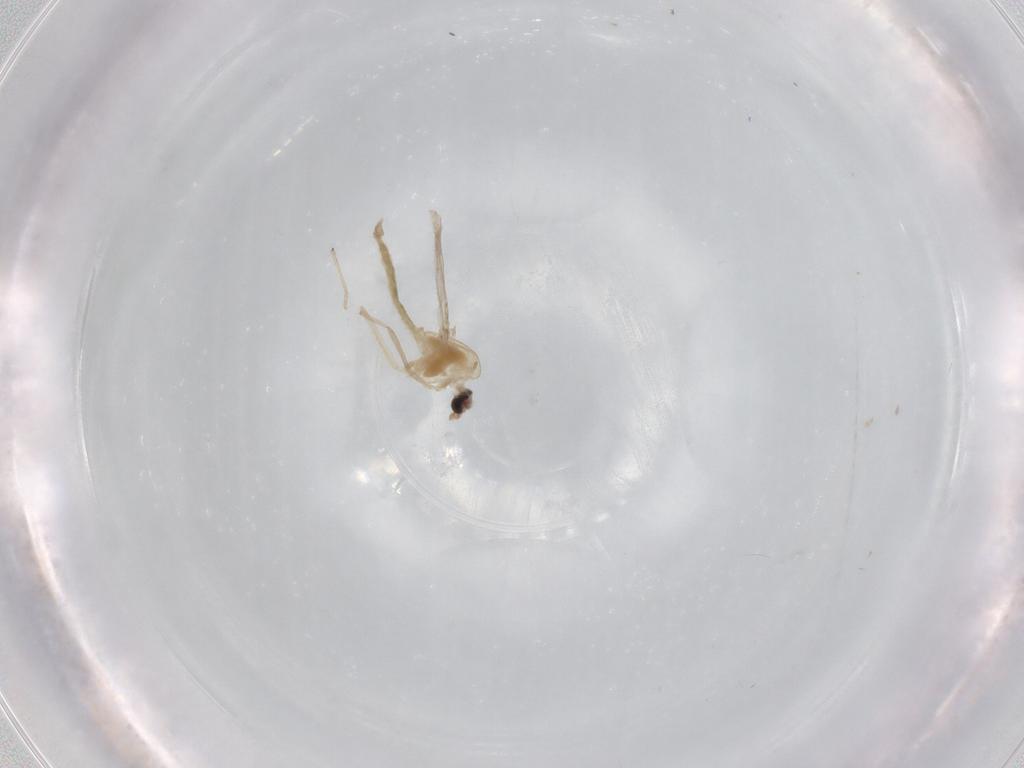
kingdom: Animalia
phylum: Arthropoda
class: Insecta
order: Diptera
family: Chironomidae
